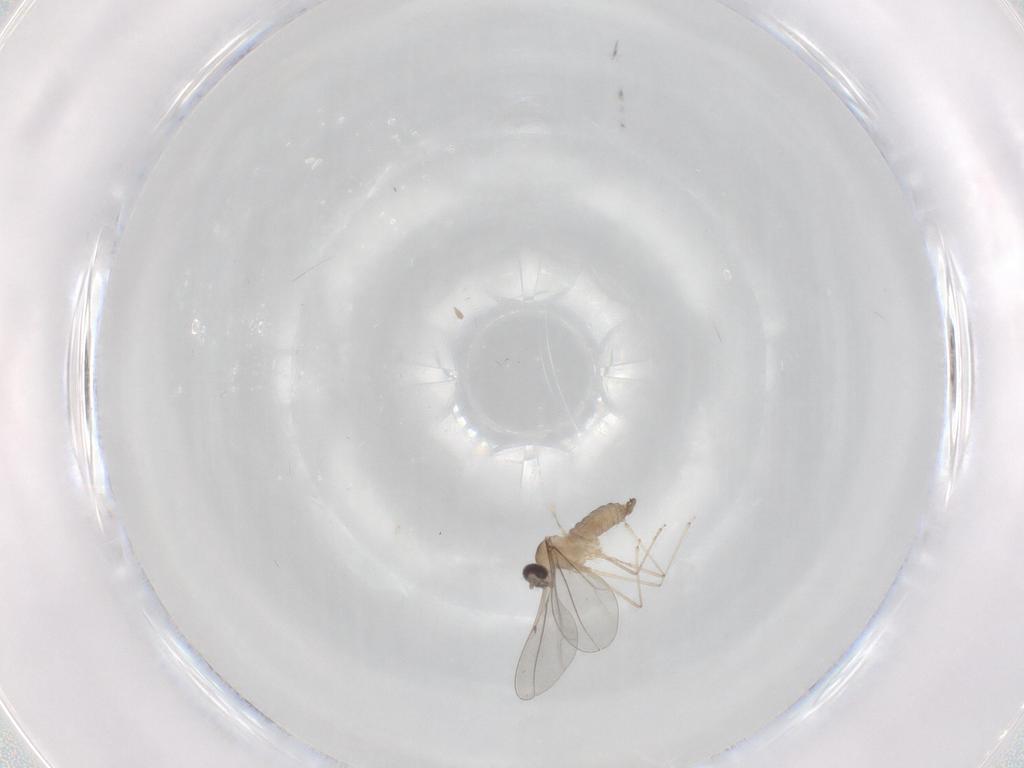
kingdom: Animalia
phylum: Arthropoda
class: Insecta
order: Diptera
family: Cecidomyiidae
